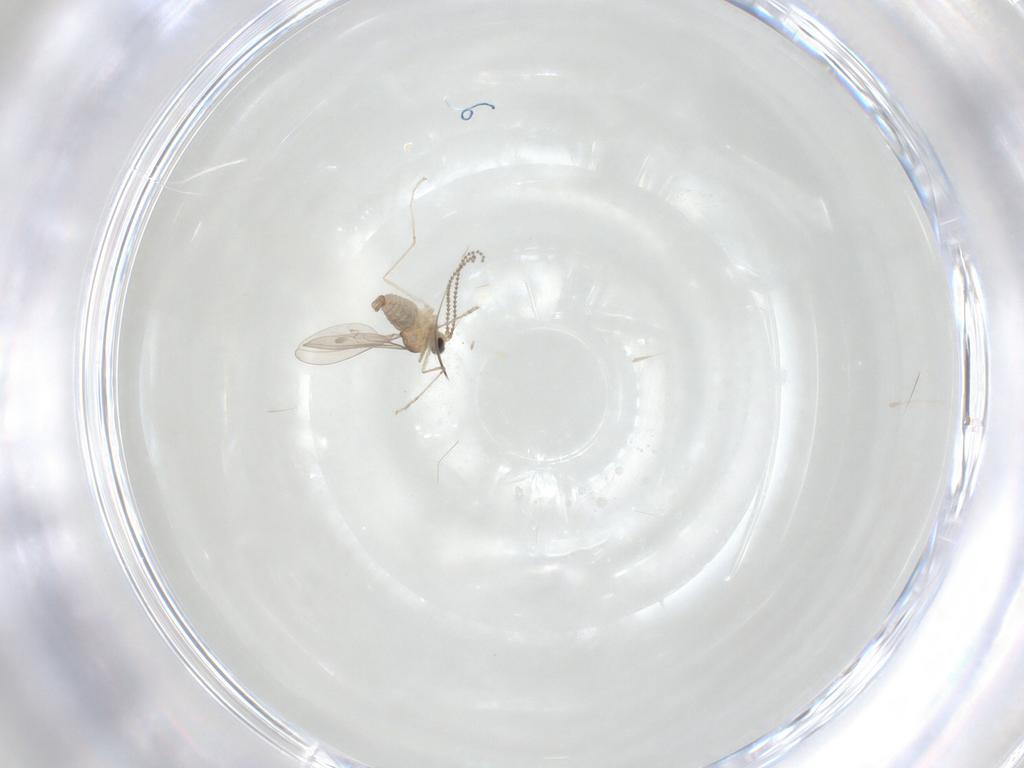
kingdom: Animalia
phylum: Arthropoda
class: Insecta
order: Diptera
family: Cecidomyiidae
